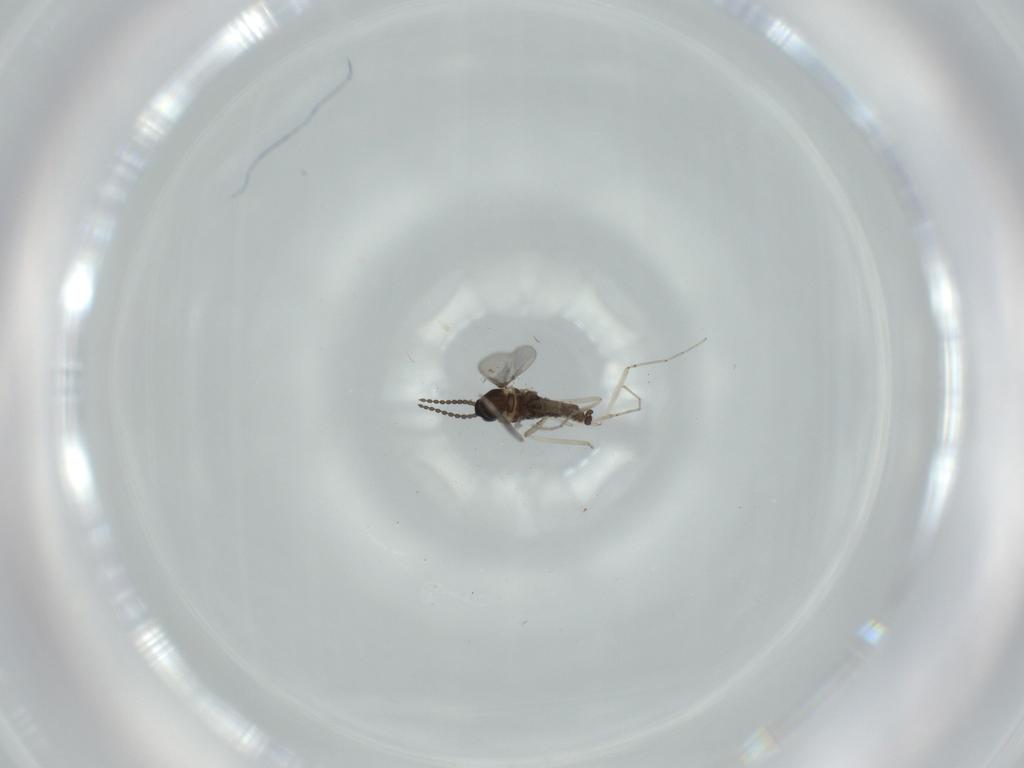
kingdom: Animalia
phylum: Arthropoda
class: Insecta
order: Diptera
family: Cecidomyiidae
